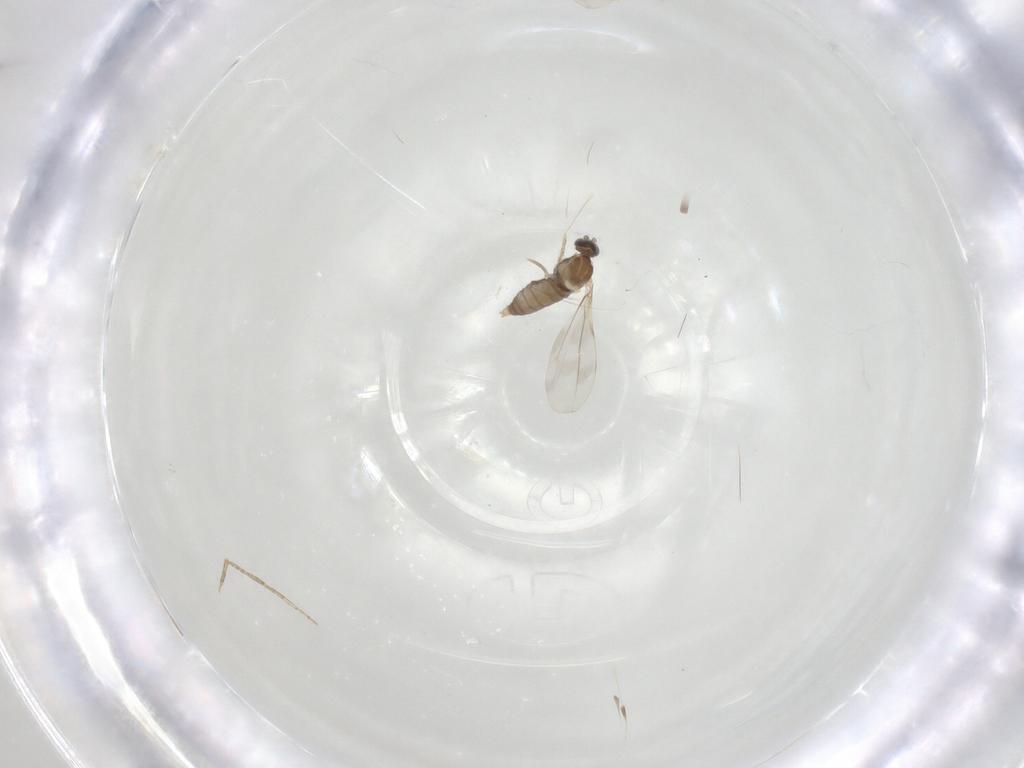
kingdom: Animalia
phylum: Arthropoda
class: Insecta
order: Diptera
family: Psychodidae
